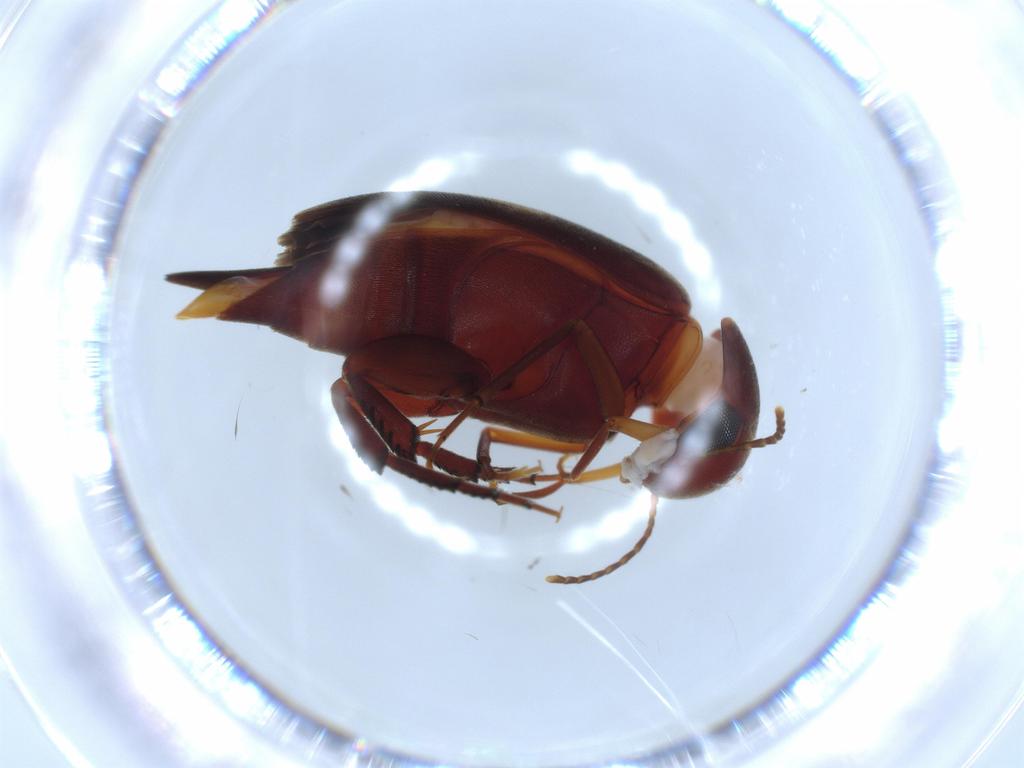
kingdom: Animalia
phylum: Arthropoda
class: Insecta
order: Coleoptera
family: Mordellidae
